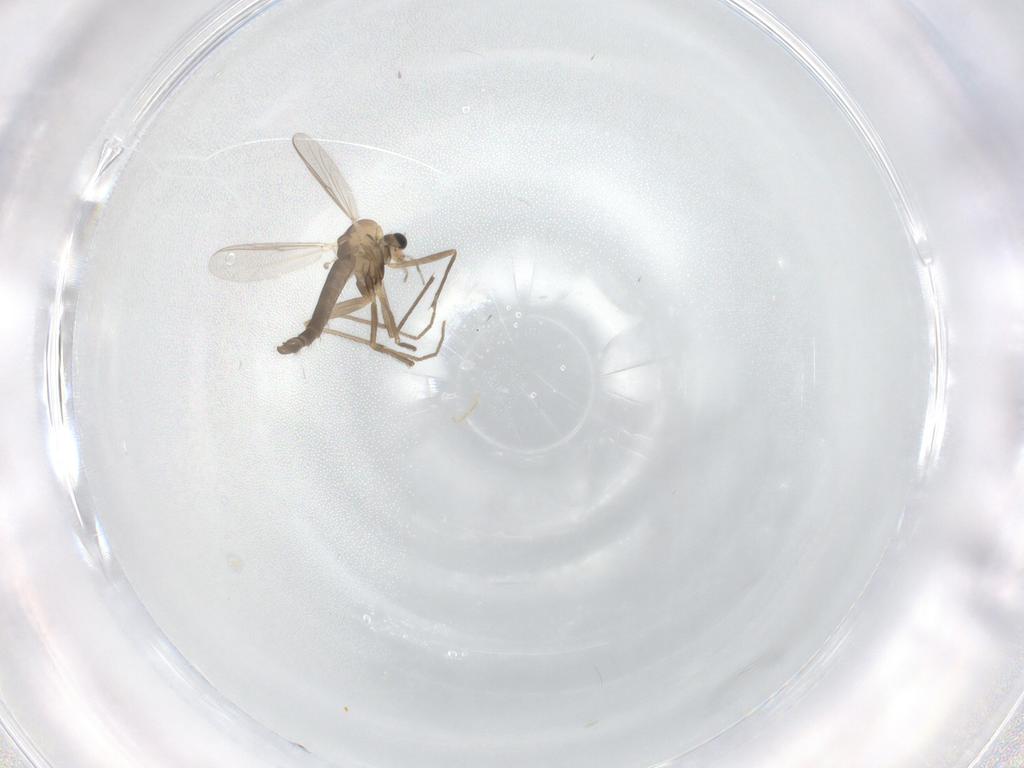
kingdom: Animalia
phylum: Arthropoda
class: Insecta
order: Diptera
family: Chironomidae
